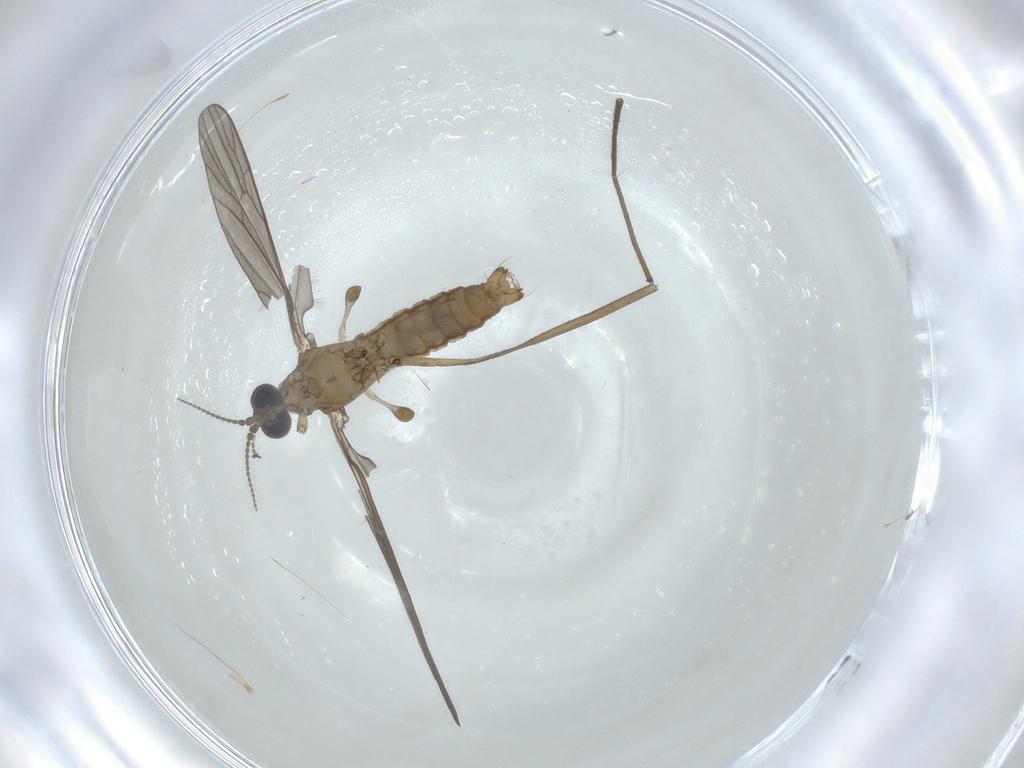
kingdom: Animalia
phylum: Arthropoda
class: Insecta
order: Diptera
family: Limoniidae
